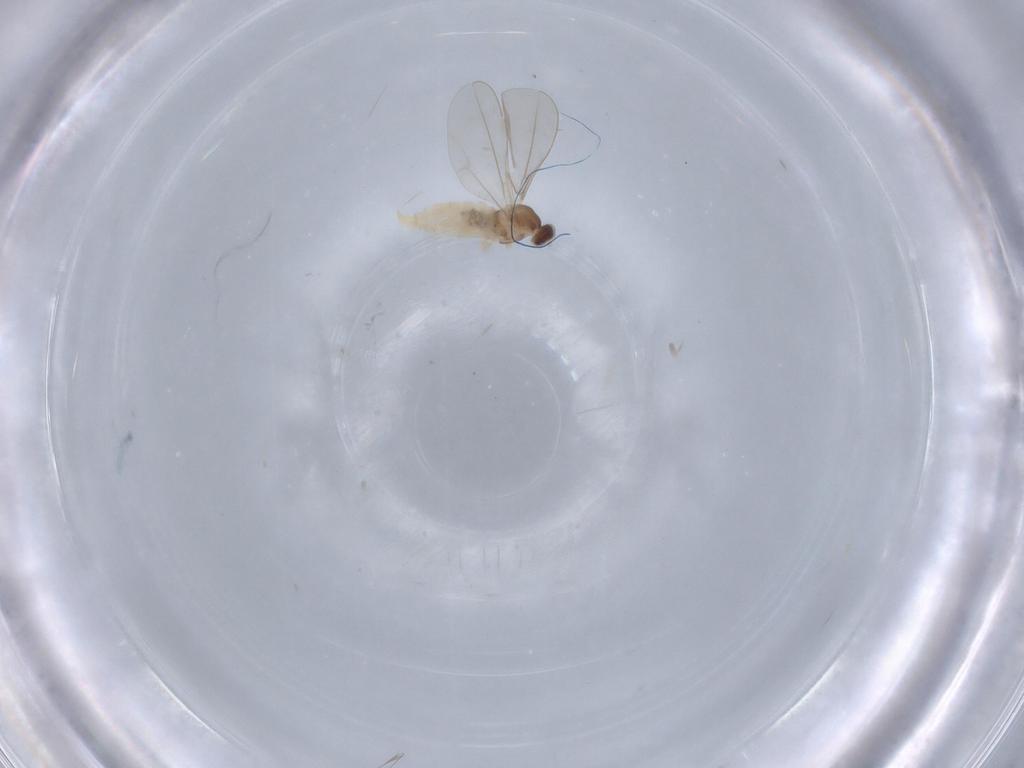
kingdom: Animalia
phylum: Arthropoda
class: Insecta
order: Diptera
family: Cecidomyiidae
